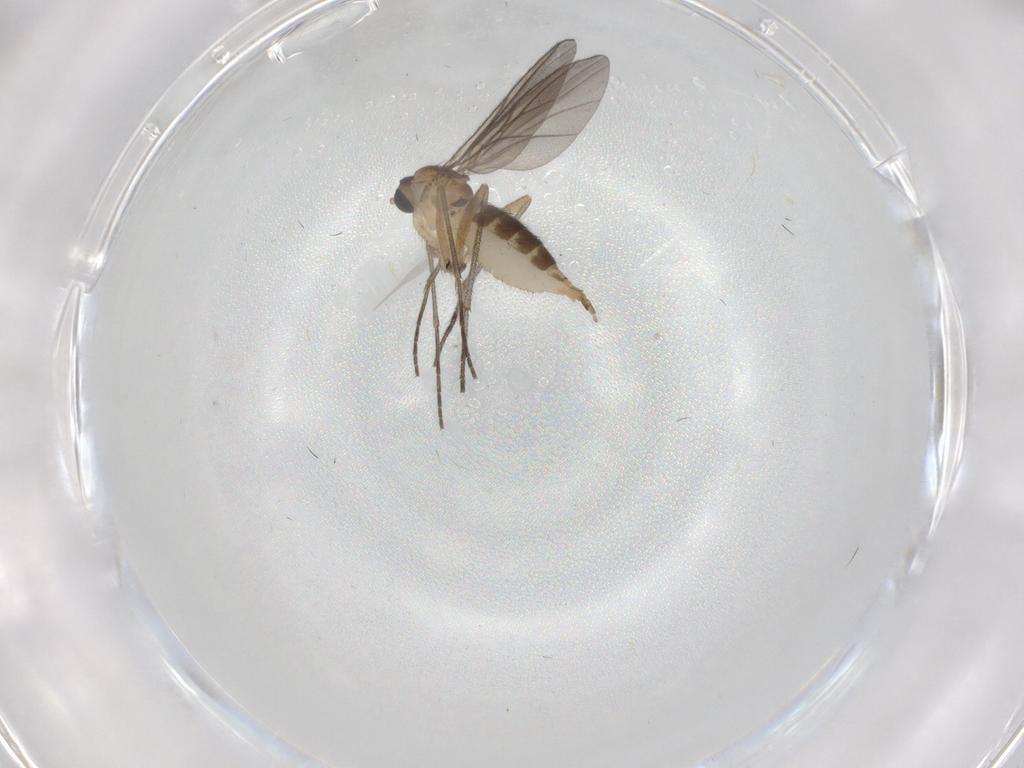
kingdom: Animalia
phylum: Arthropoda
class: Insecta
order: Diptera
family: Sciaridae
